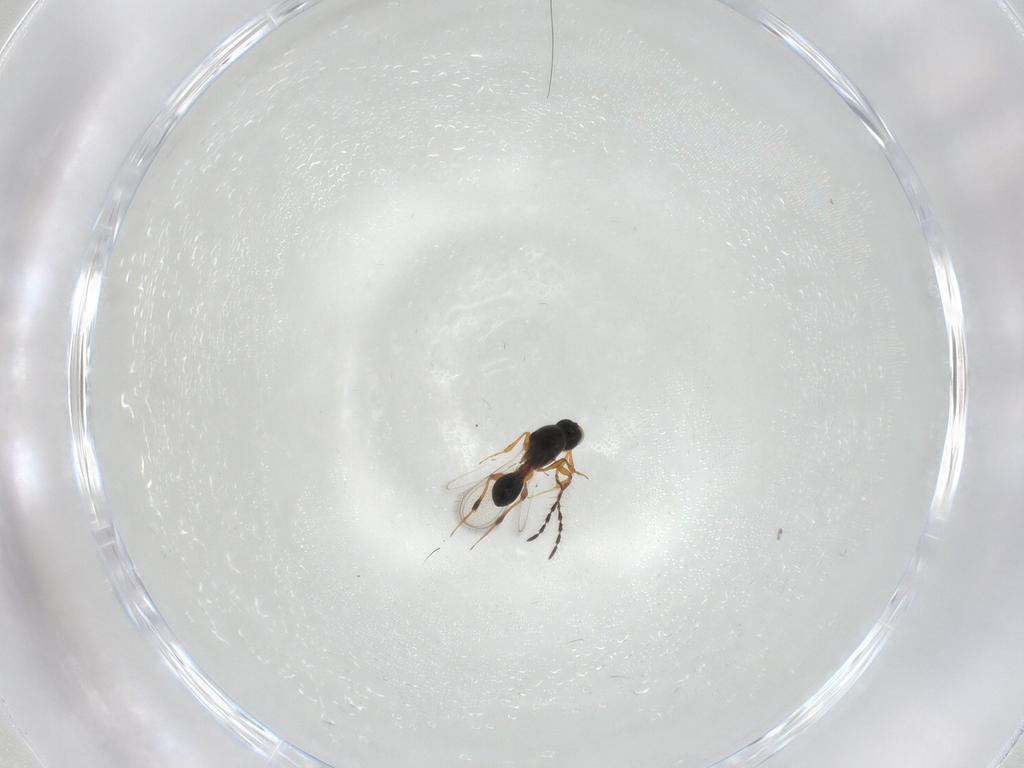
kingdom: Animalia
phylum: Arthropoda
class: Insecta
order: Hymenoptera
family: Platygastridae
